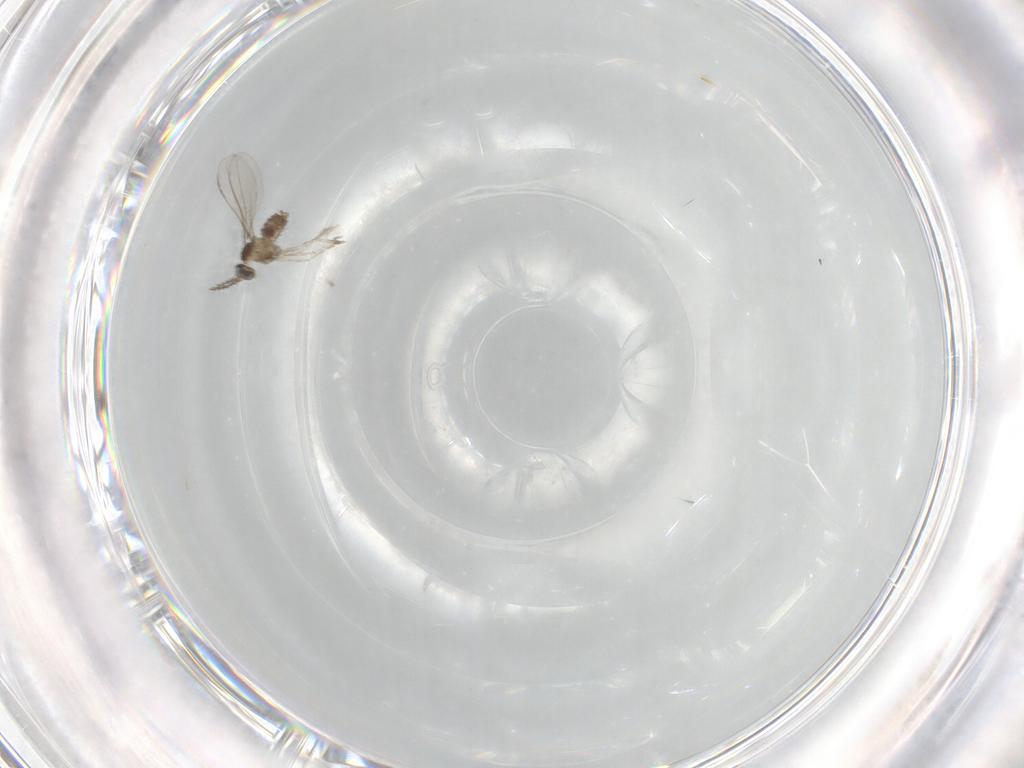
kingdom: Animalia
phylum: Arthropoda
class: Insecta
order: Diptera
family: Cecidomyiidae
